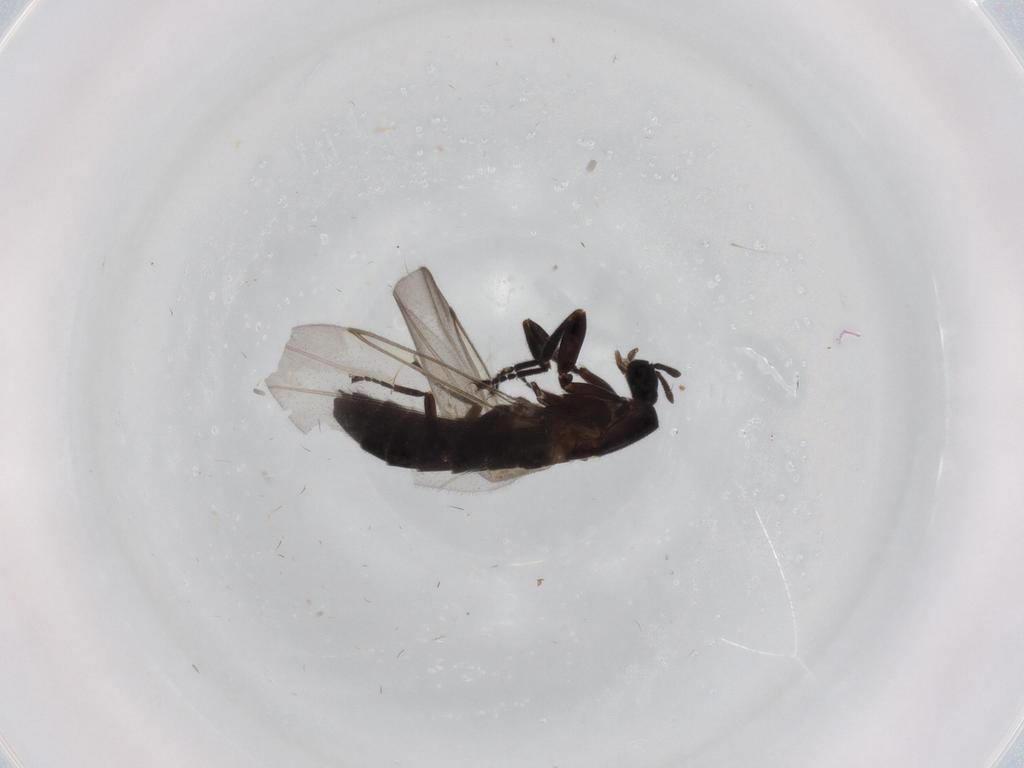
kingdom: Animalia
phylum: Arthropoda
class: Insecta
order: Diptera
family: Scatopsidae
